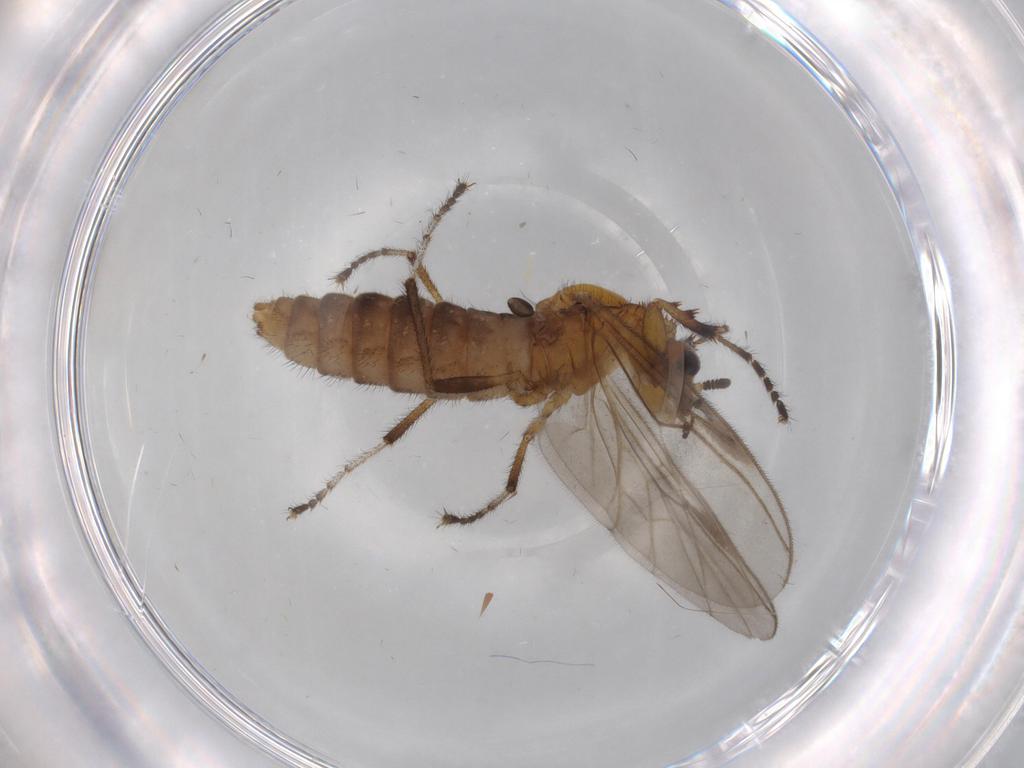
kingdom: Animalia
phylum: Arthropoda
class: Insecta
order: Diptera
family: Bibionidae
